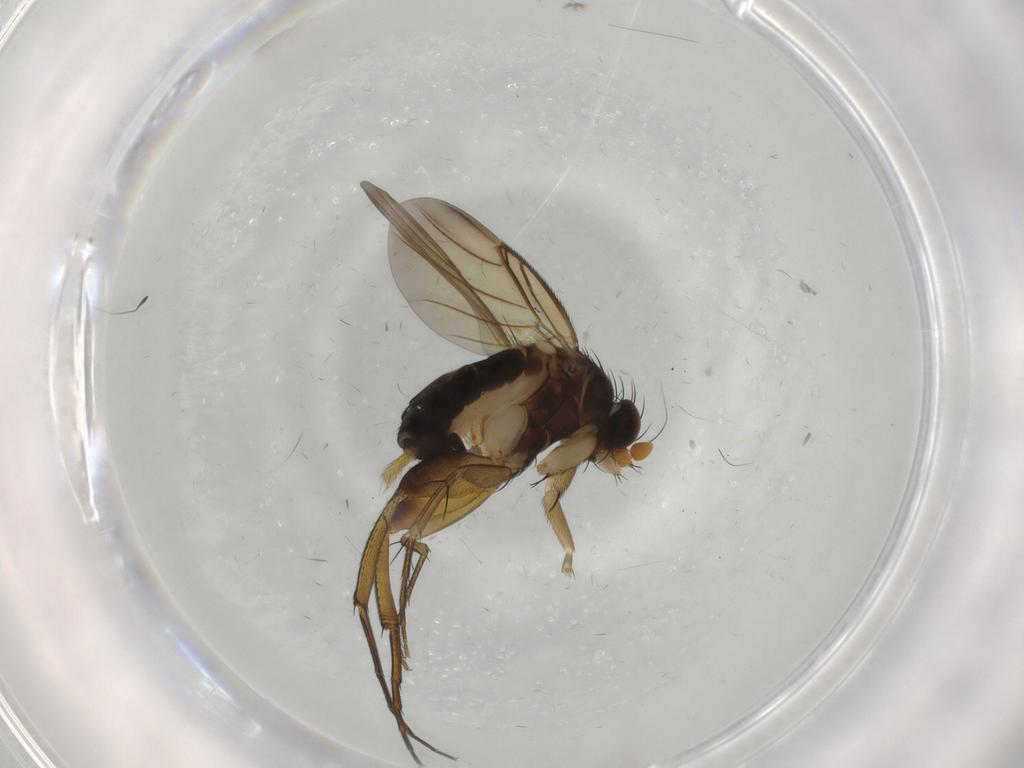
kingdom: Animalia
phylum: Arthropoda
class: Insecta
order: Diptera
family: Phoridae
